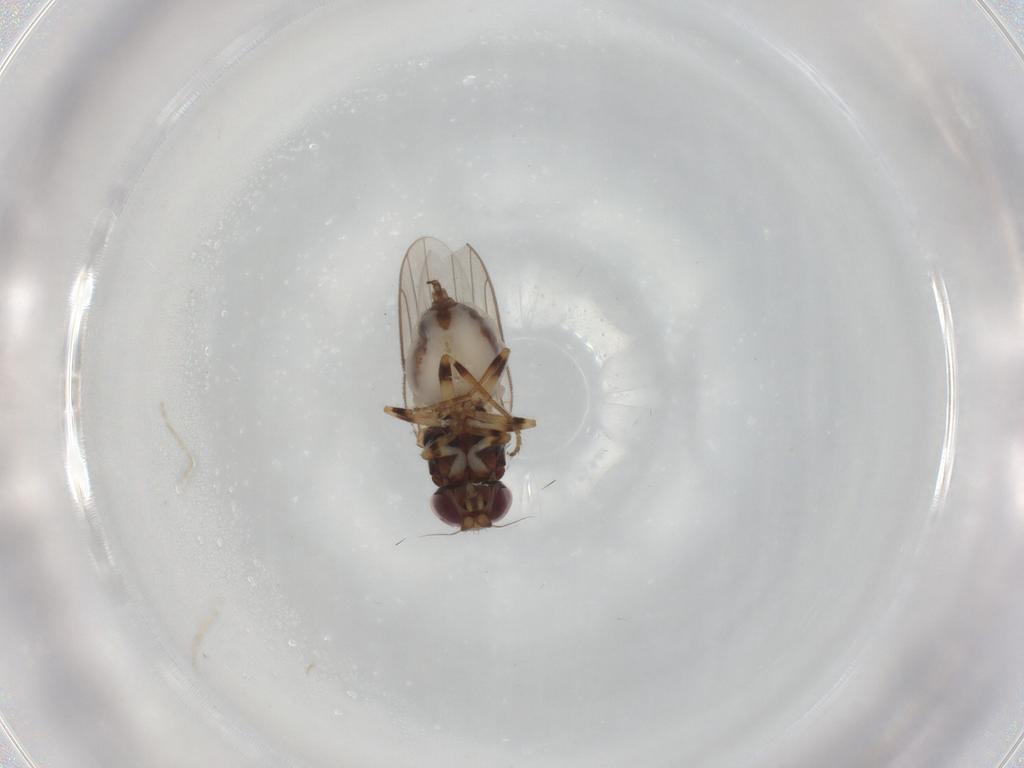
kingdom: Animalia
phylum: Arthropoda
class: Insecta
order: Diptera
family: Chloropidae
